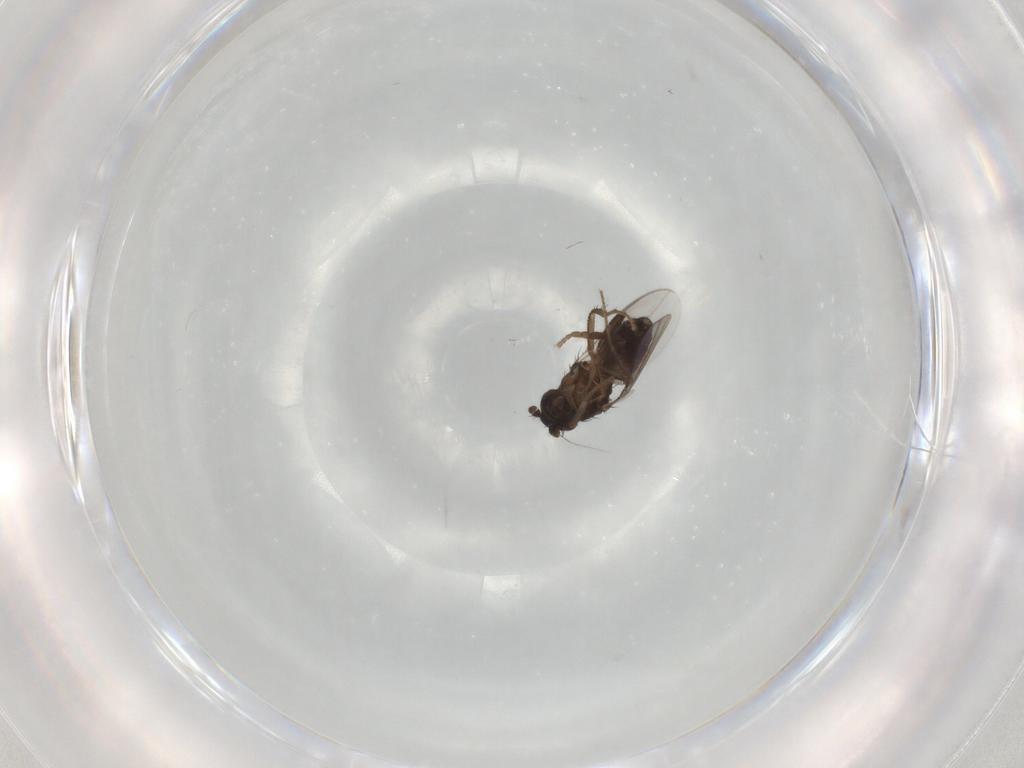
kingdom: Animalia
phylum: Arthropoda
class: Insecta
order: Diptera
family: Sphaeroceridae
